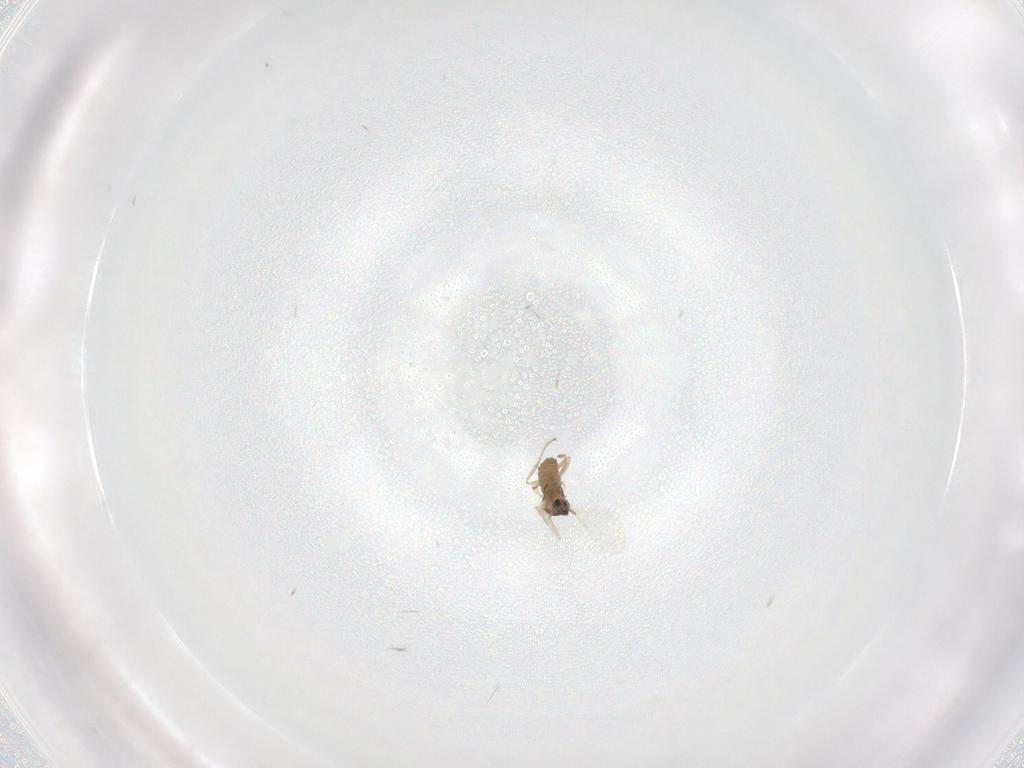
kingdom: Animalia
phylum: Arthropoda
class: Insecta
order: Diptera
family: Cecidomyiidae
